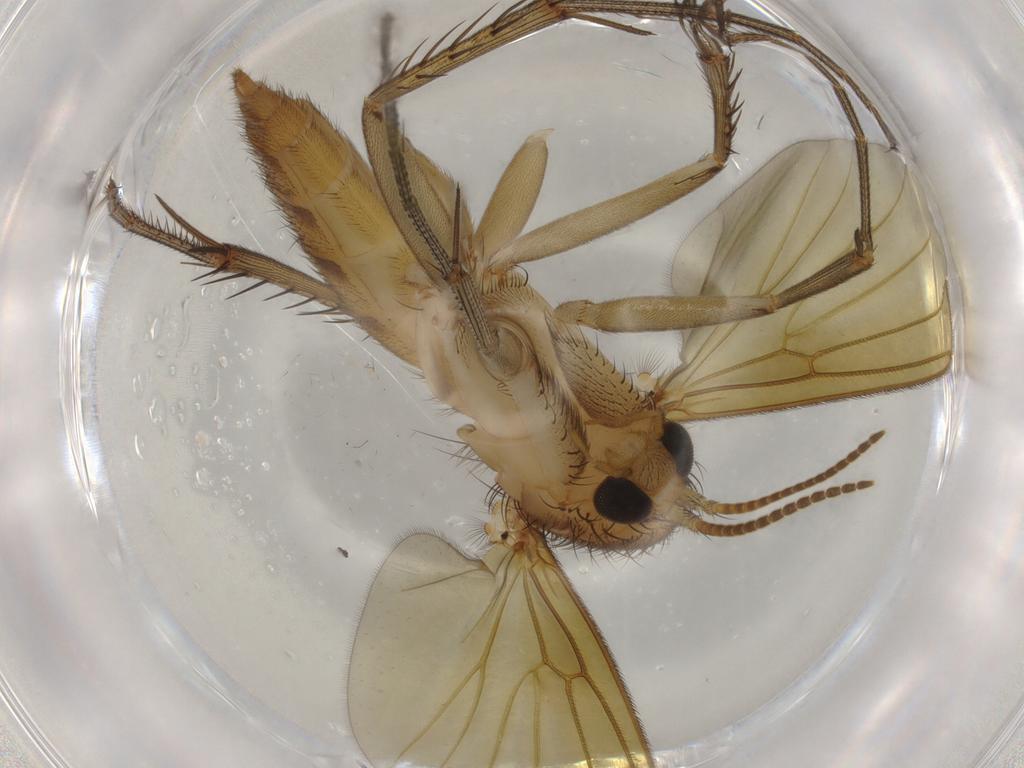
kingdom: Animalia
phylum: Arthropoda
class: Insecta
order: Diptera
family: Mycetophilidae
